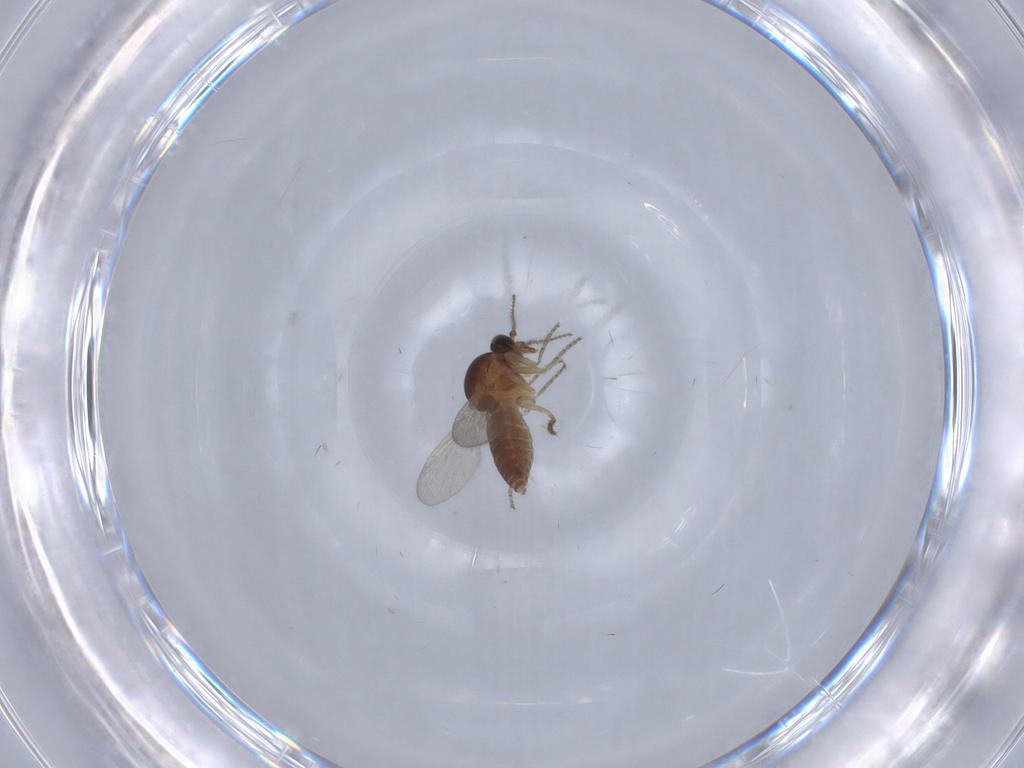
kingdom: Animalia
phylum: Arthropoda
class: Insecta
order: Diptera
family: Ceratopogonidae
